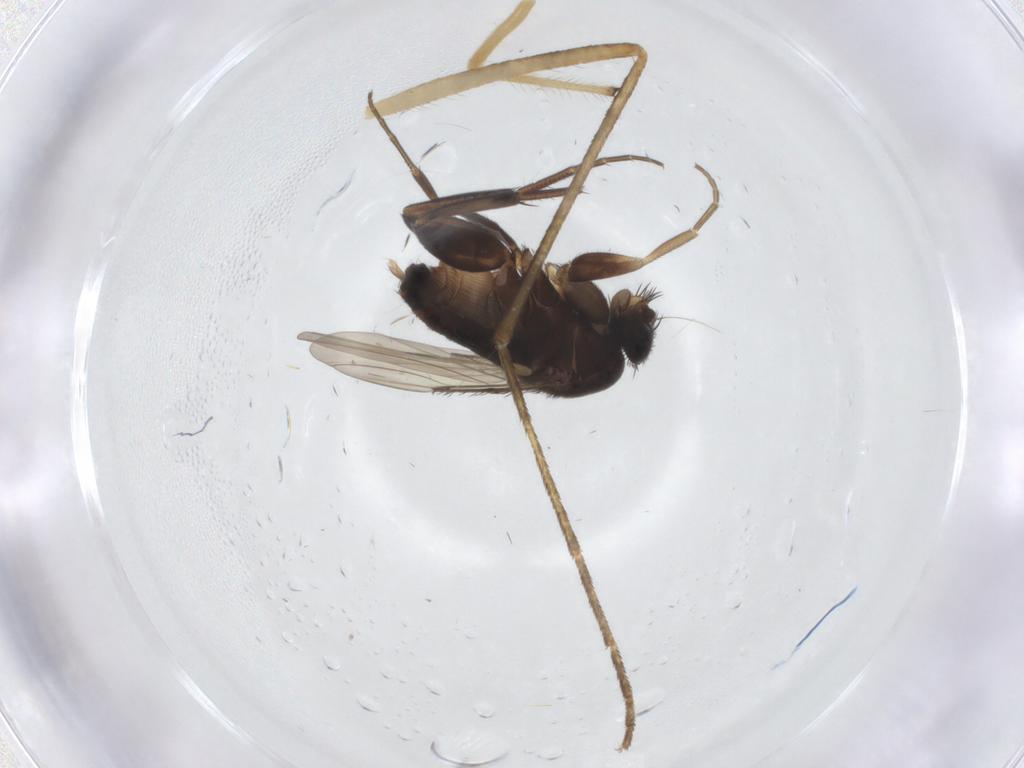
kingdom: Animalia
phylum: Arthropoda
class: Insecta
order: Diptera
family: Culicidae
